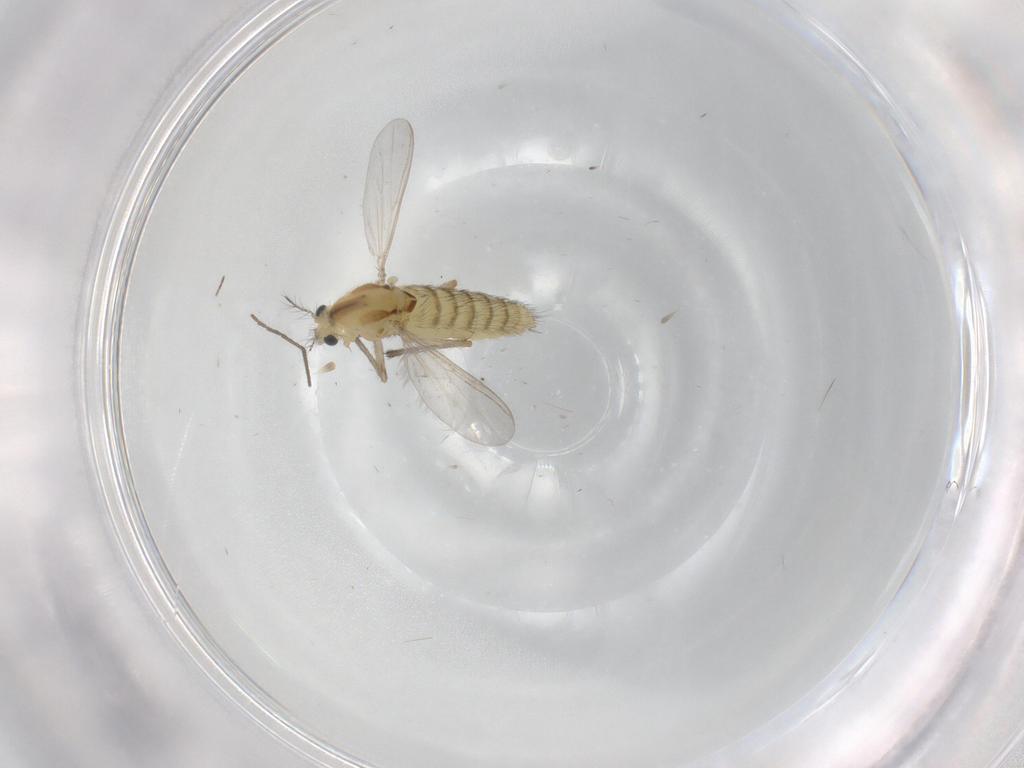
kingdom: Animalia
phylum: Arthropoda
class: Insecta
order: Diptera
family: Chironomidae
